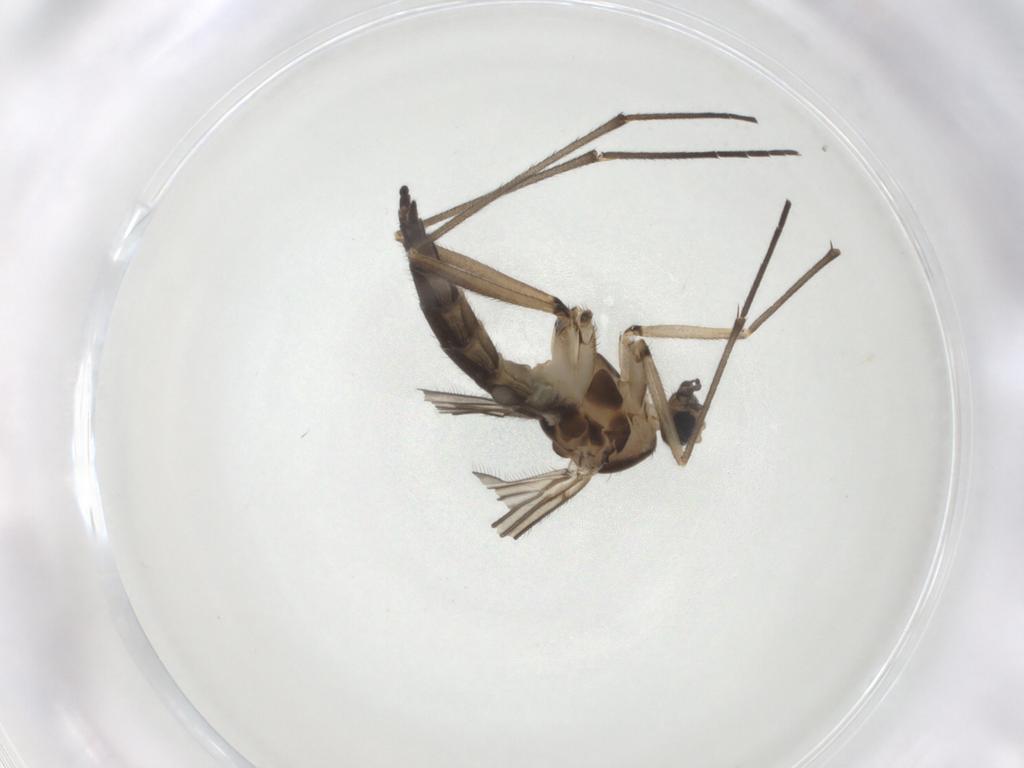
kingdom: Animalia
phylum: Arthropoda
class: Insecta
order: Diptera
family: Sciaridae
